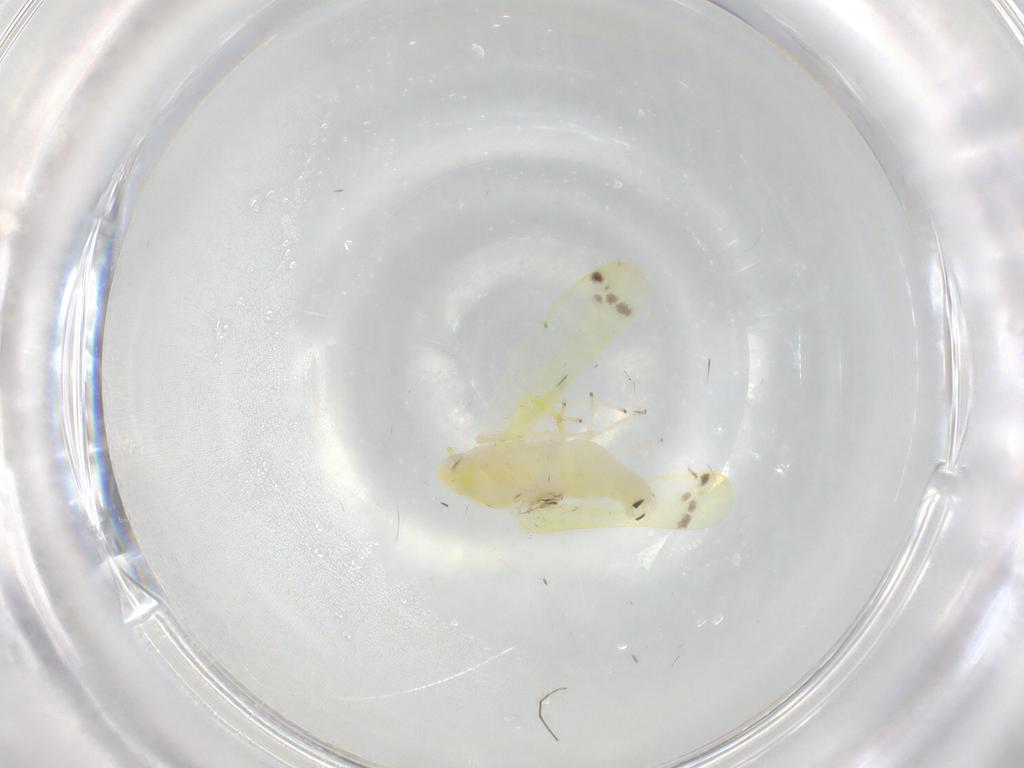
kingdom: Animalia
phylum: Arthropoda
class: Insecta
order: Hemiptera
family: Cicadellidae
